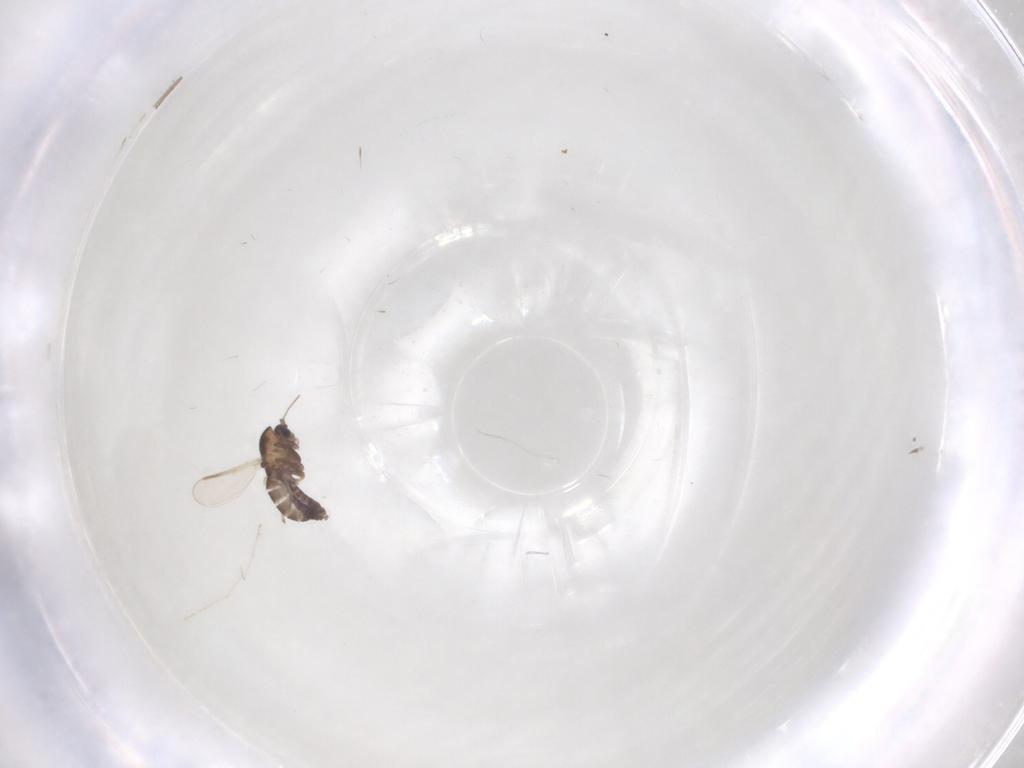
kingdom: Animalia
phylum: Arthropoda
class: Insecta
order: Diptera
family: Chironomidae
